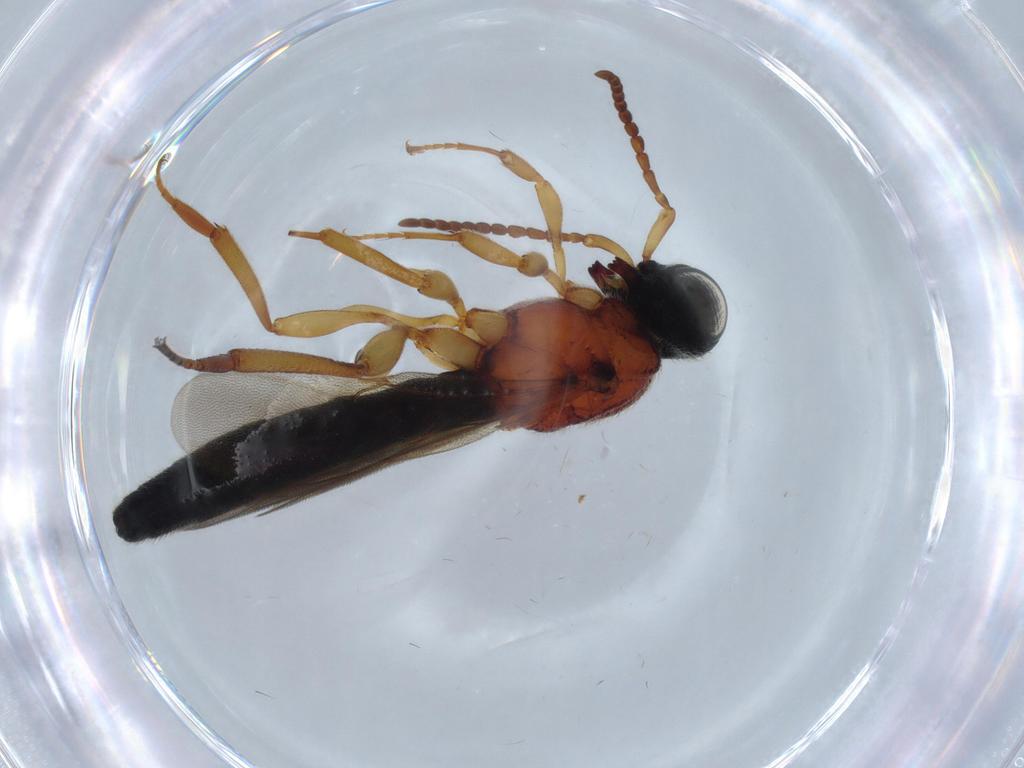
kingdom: Animalia
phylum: Arthropoda
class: Insecta
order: Hymenoptera
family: Scelionidae
